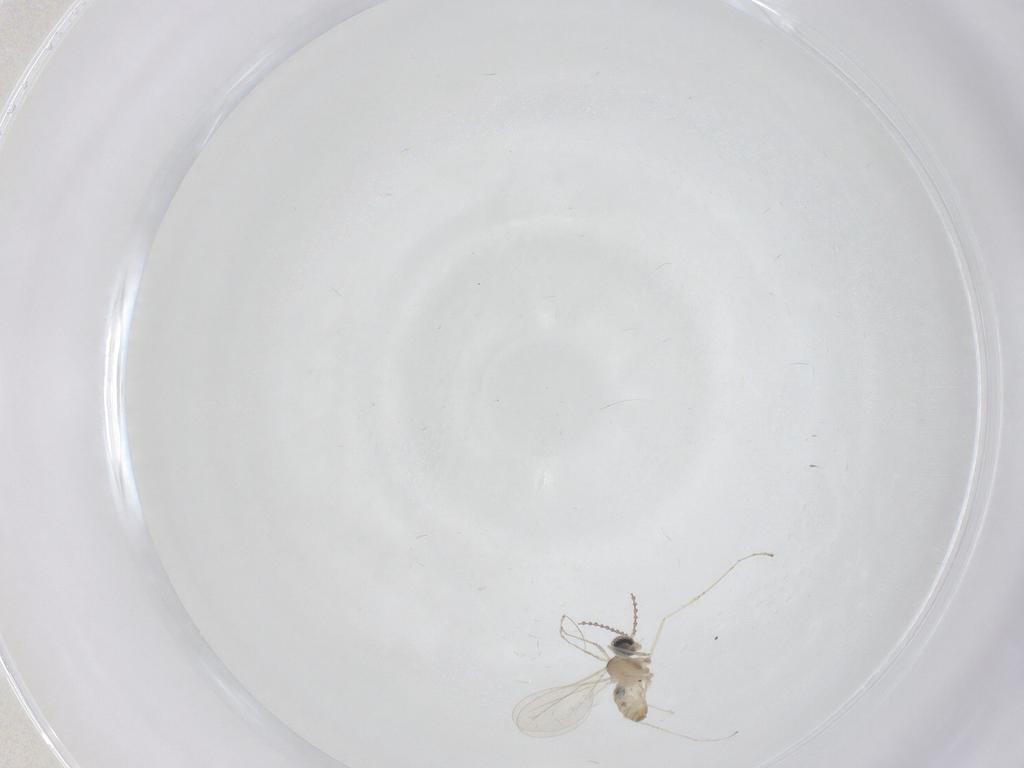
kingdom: Animalia
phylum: Arthropoda
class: Insecta
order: Diptera
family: Cecidomyiidae
